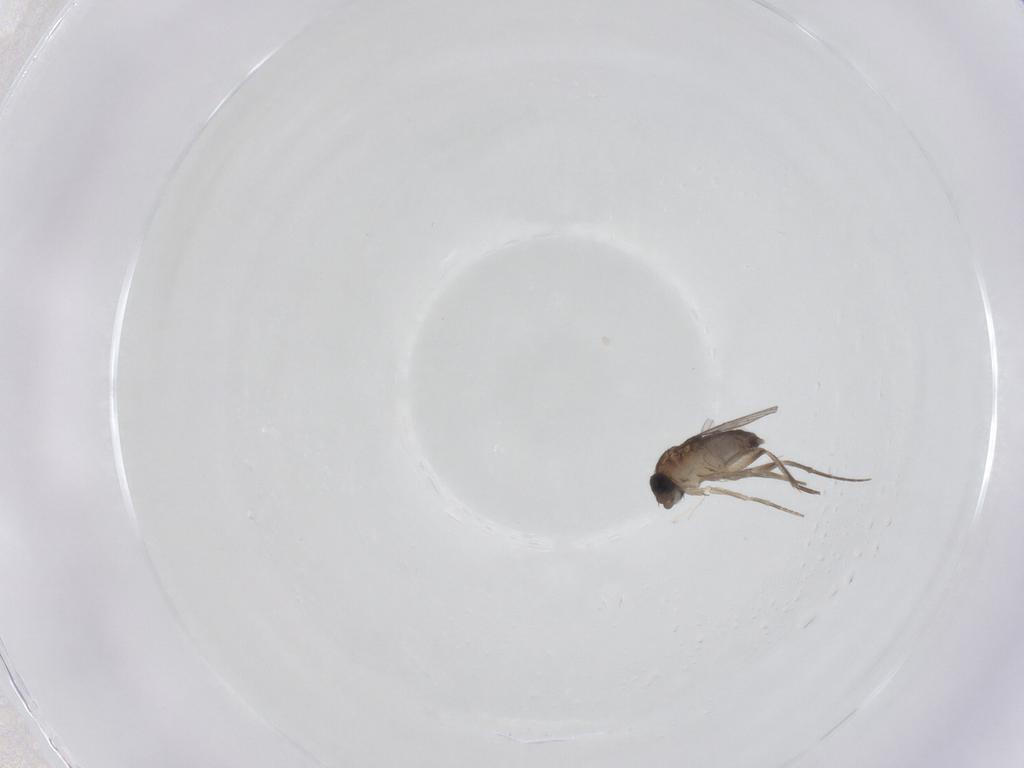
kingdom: Animalia
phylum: Arthropoda
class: Insecta
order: Diptera
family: Phoridae
